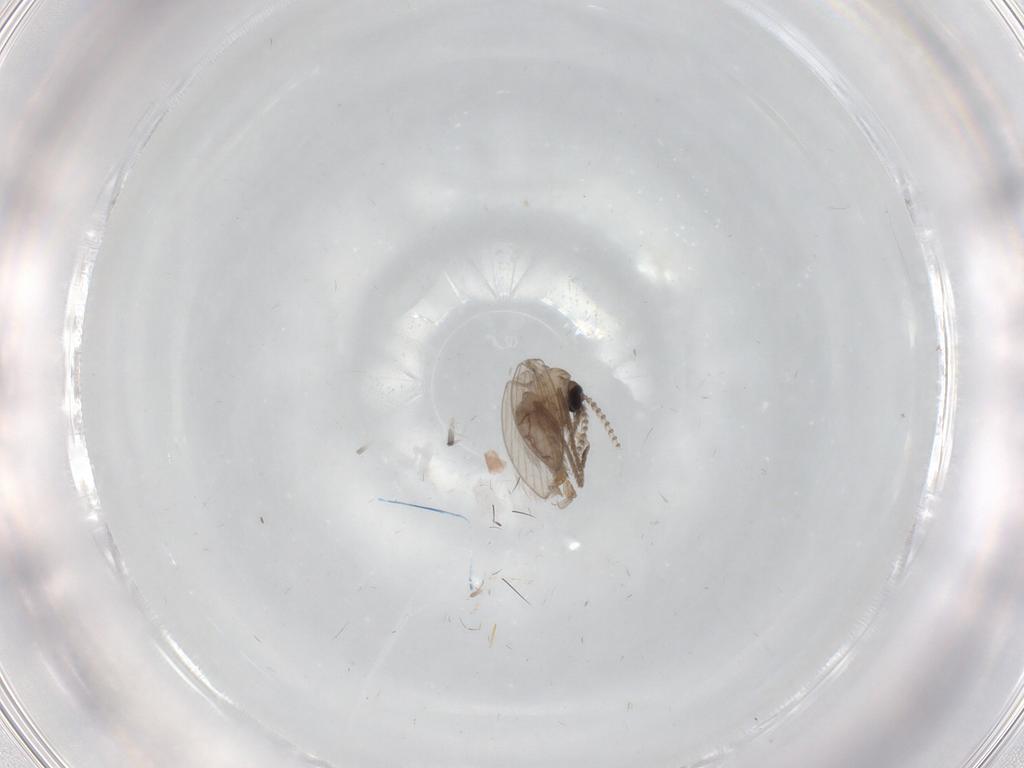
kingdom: Animalia
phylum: Arthropoda
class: Insecta
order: Diptera
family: Psychodidae
